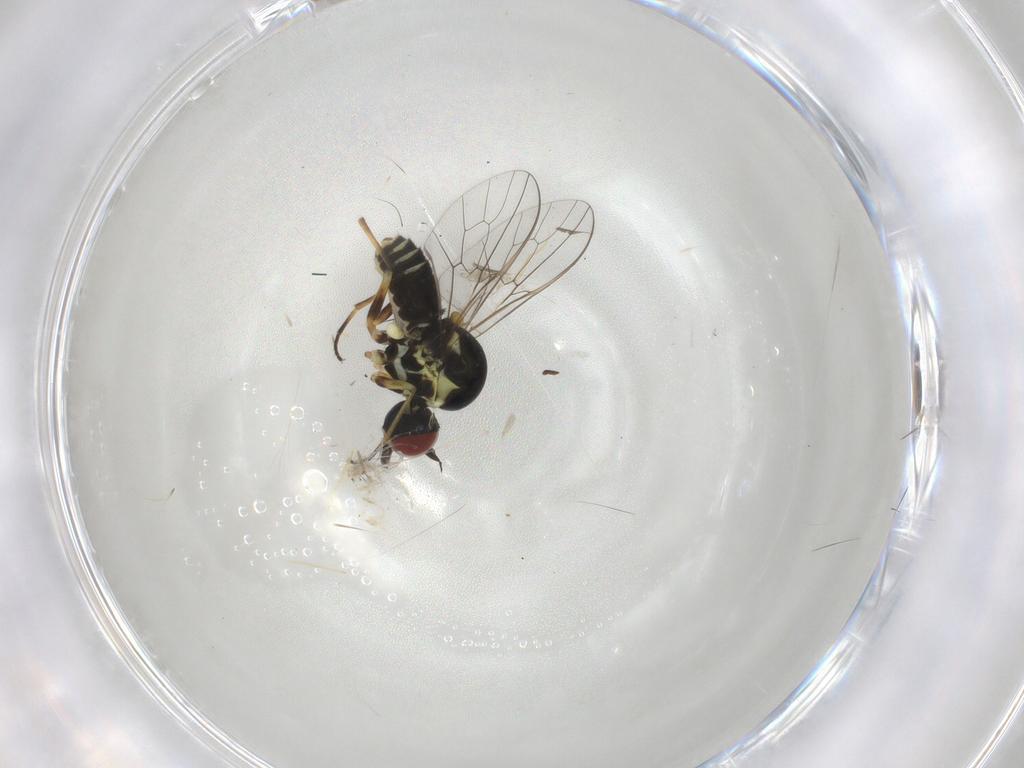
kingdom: Animalia
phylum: Arthropoda
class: Insecta
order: Diptera
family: Bombyliidae
